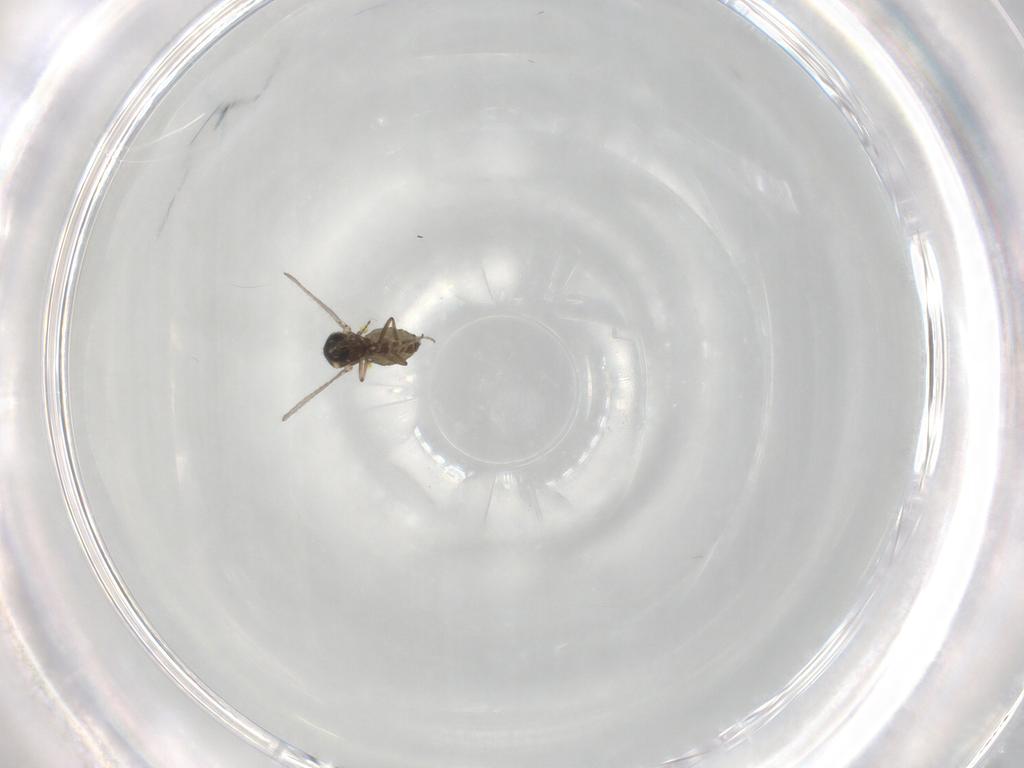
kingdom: Animalia
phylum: Arthropoda
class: Insecta
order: Diptera
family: Ceratopogonidae
